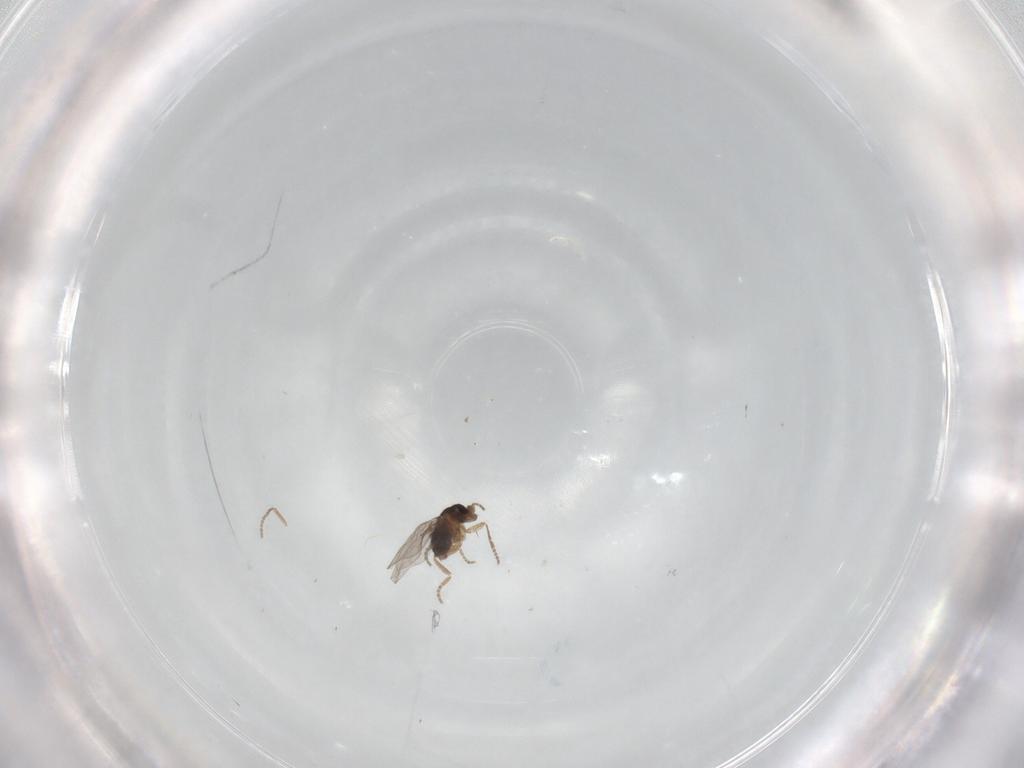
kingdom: Animalia
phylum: Arthropoda
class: Insecta
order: Diptera
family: Phoridae
